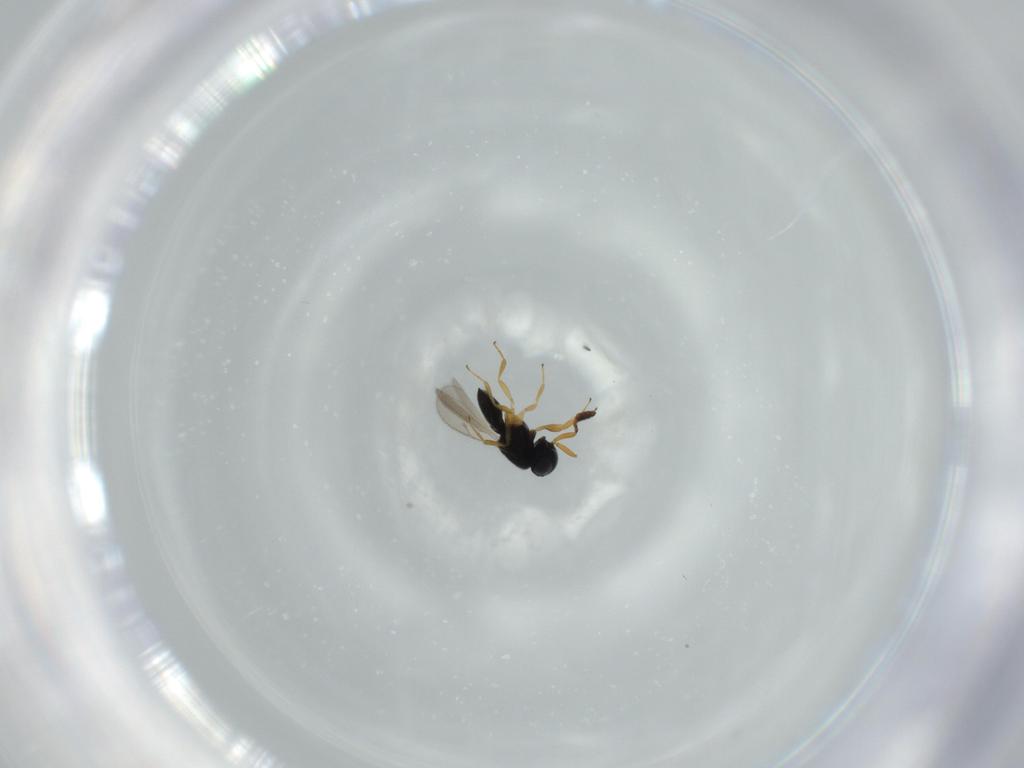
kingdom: Animalia
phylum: Arthropoda
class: Insecta
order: Hymenoptera
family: Scelionidae
